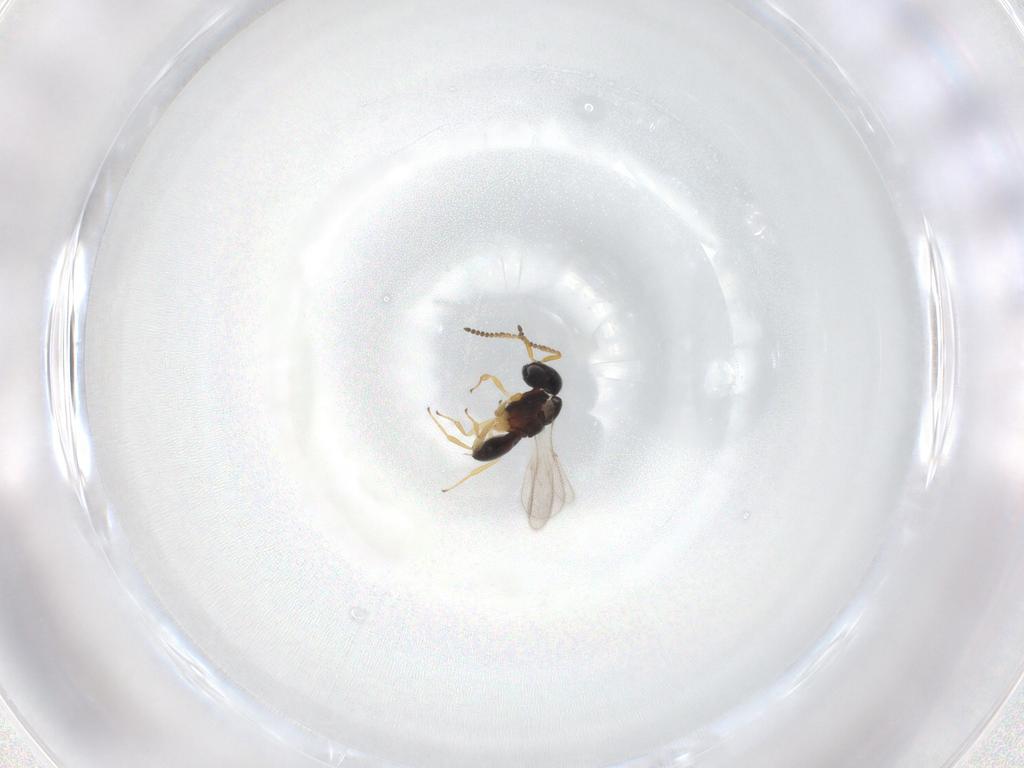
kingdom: Animalia
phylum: Arthropoda
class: Insecta
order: Hymenoptera
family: Scelionidae
